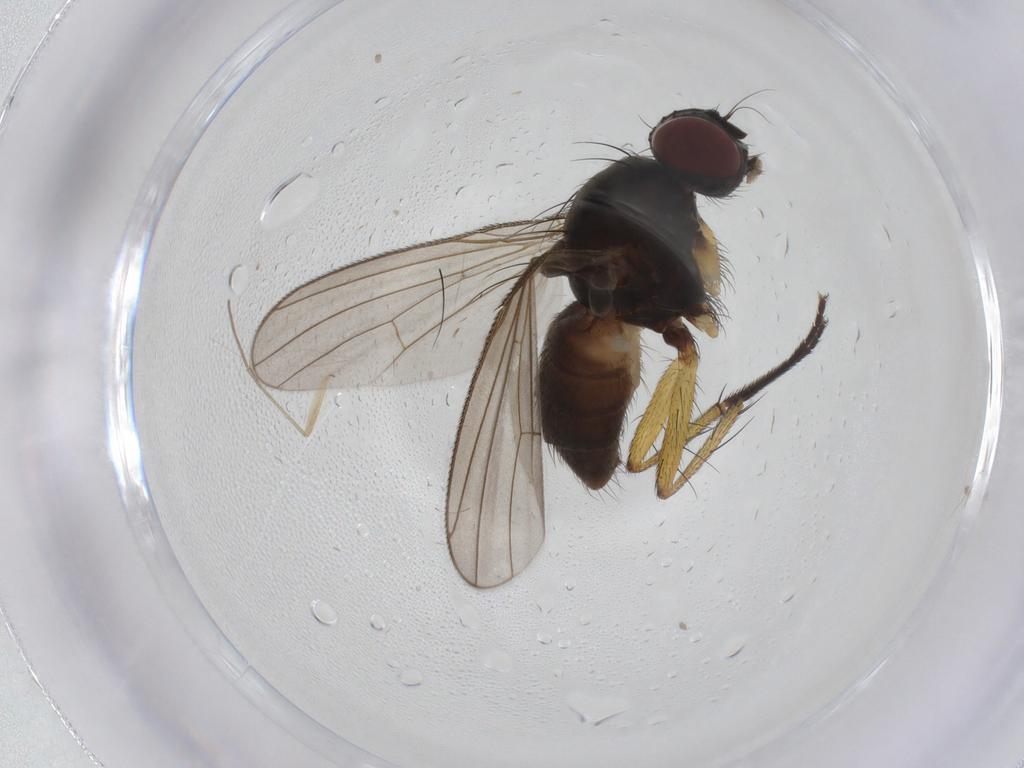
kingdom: Animalia
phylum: Arthropoda
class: Insecta
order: Diptera
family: Muscidae
